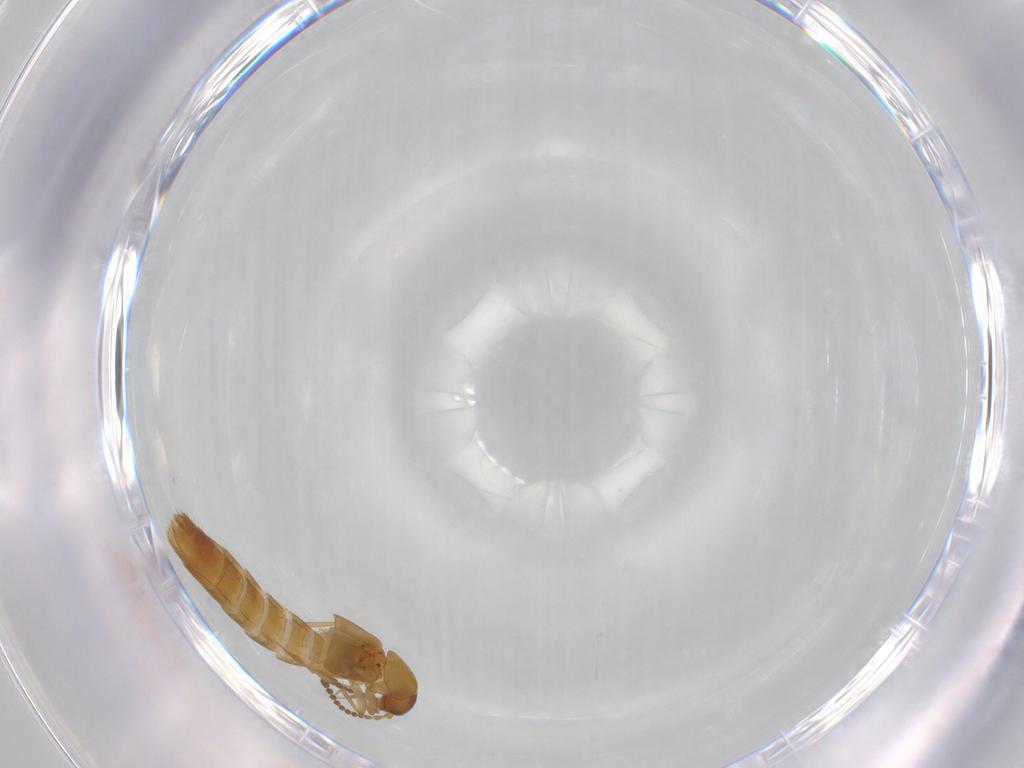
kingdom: Animalia
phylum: Arthropoda
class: Insecta
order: Coleoptera
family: Staphylinidae
